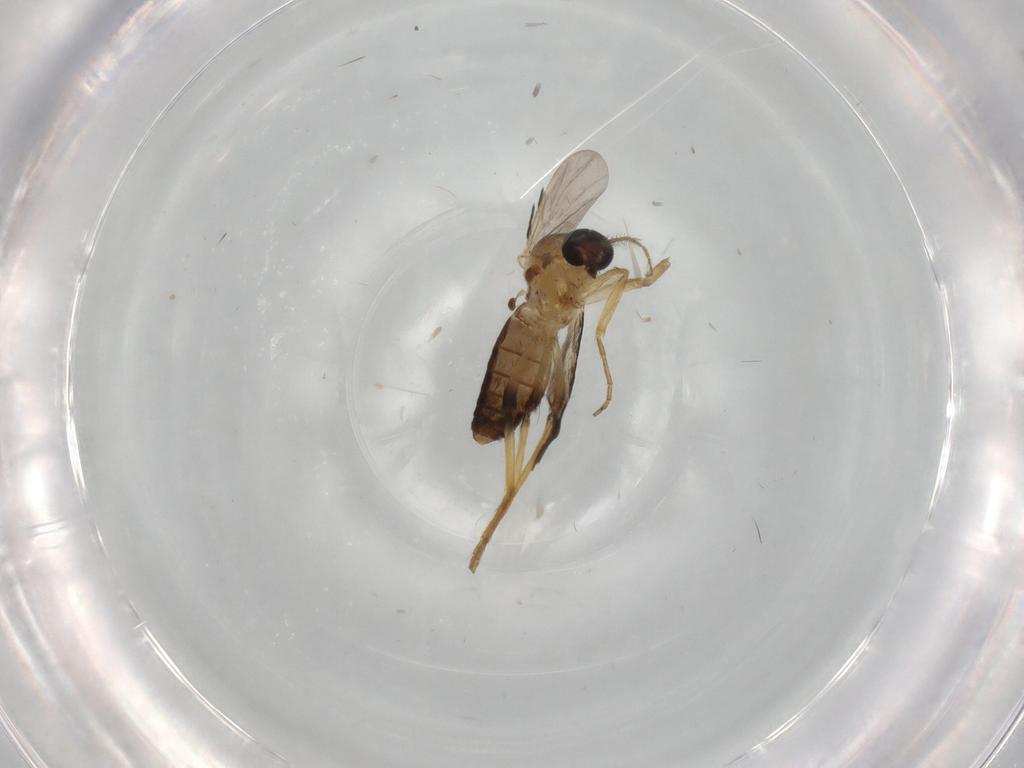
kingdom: Animalia
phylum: Arthropoda
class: Insecta
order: Diptera
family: Ceratopogonidae
